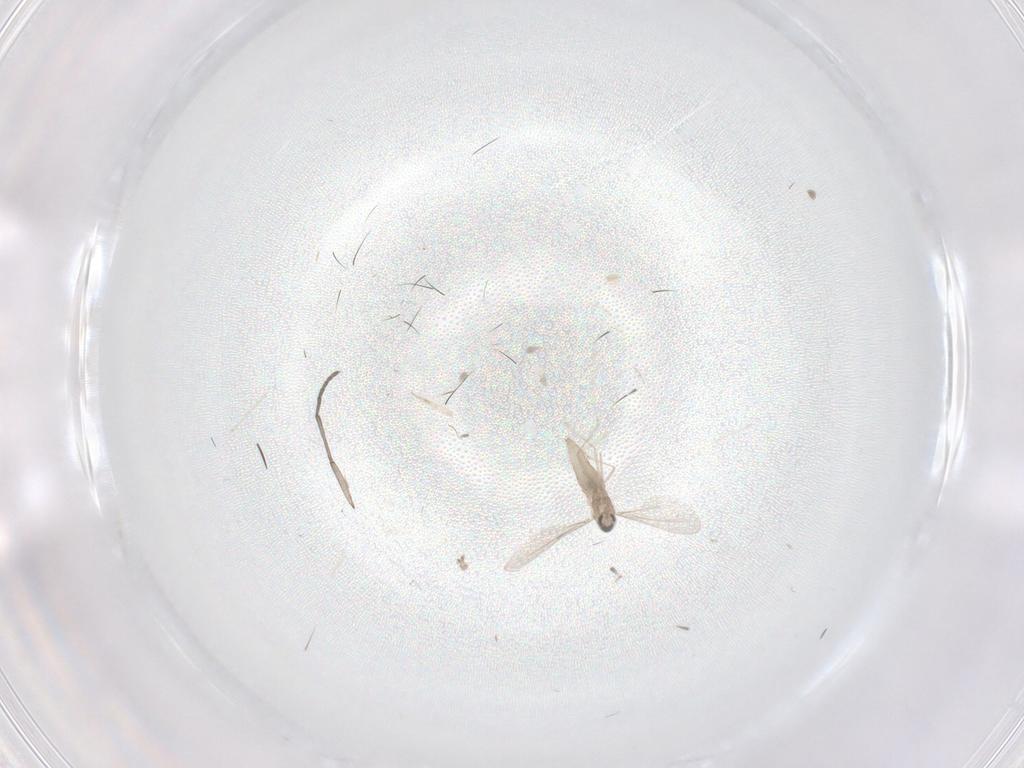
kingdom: Animalia
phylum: Arthropoda
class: Insecta
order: Diptera
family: Cecidomyiidae
